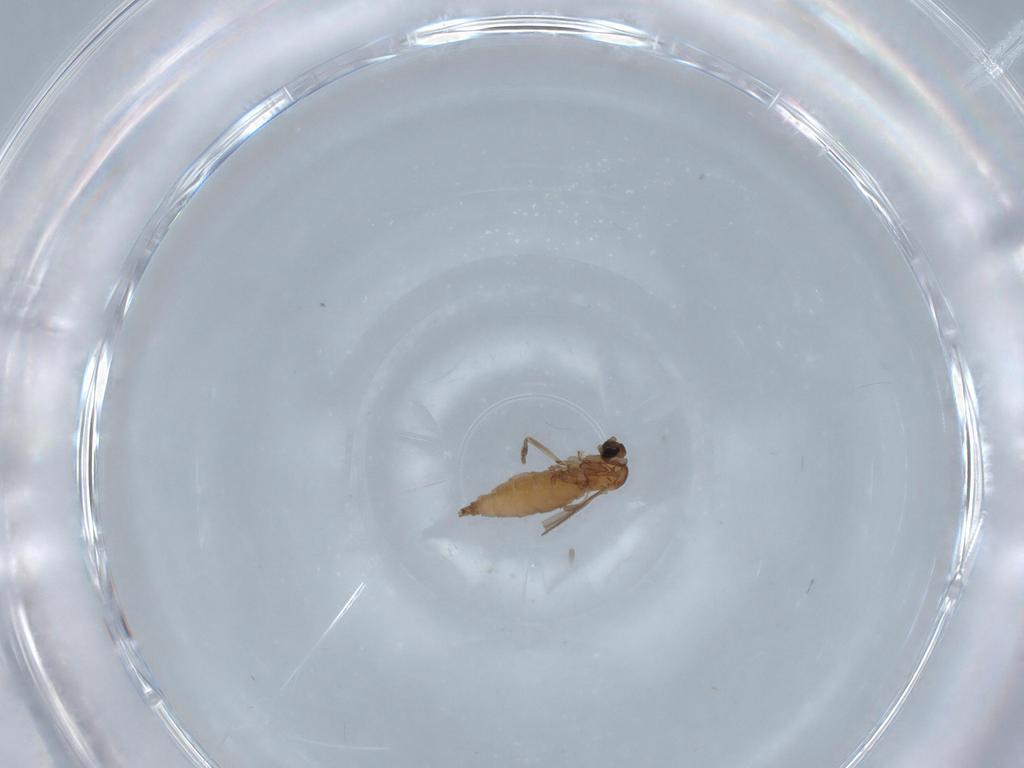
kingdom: Animalia
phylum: Arthropoda
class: Insecta
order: Diptera
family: Sciaridae
